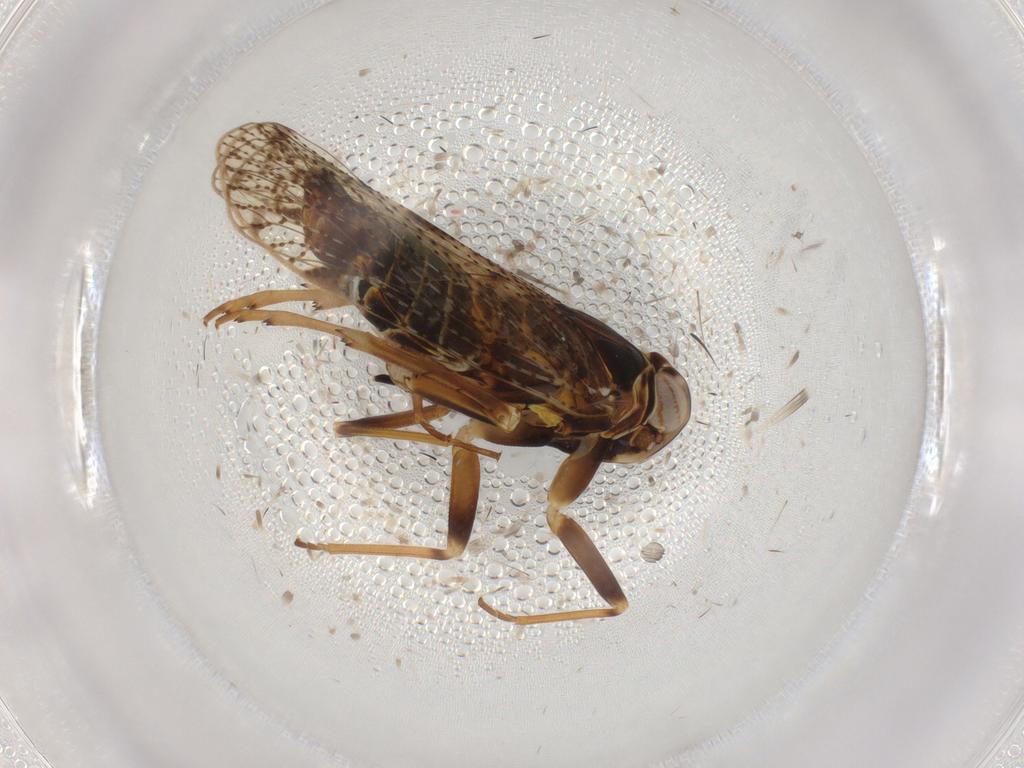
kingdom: Animalia
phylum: Arthropoda
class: Insecta
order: Hemiptera
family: Cixiidae
